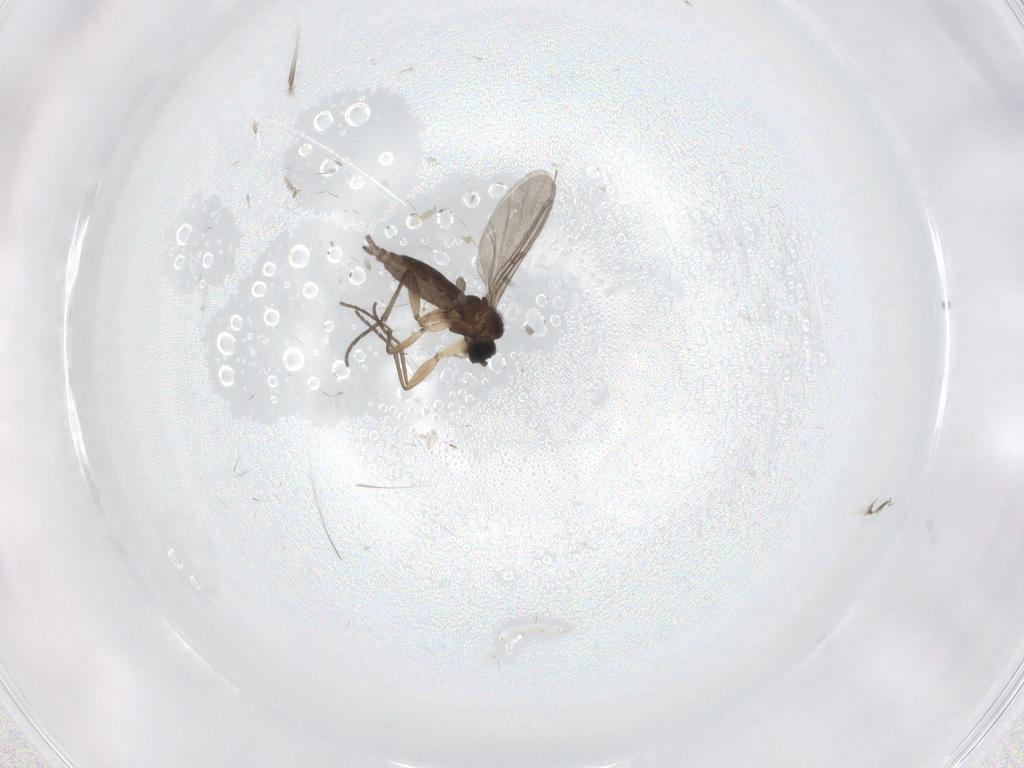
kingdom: Animalia
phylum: Arthropoda
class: Insecta
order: Diptera
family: Sciaridae
